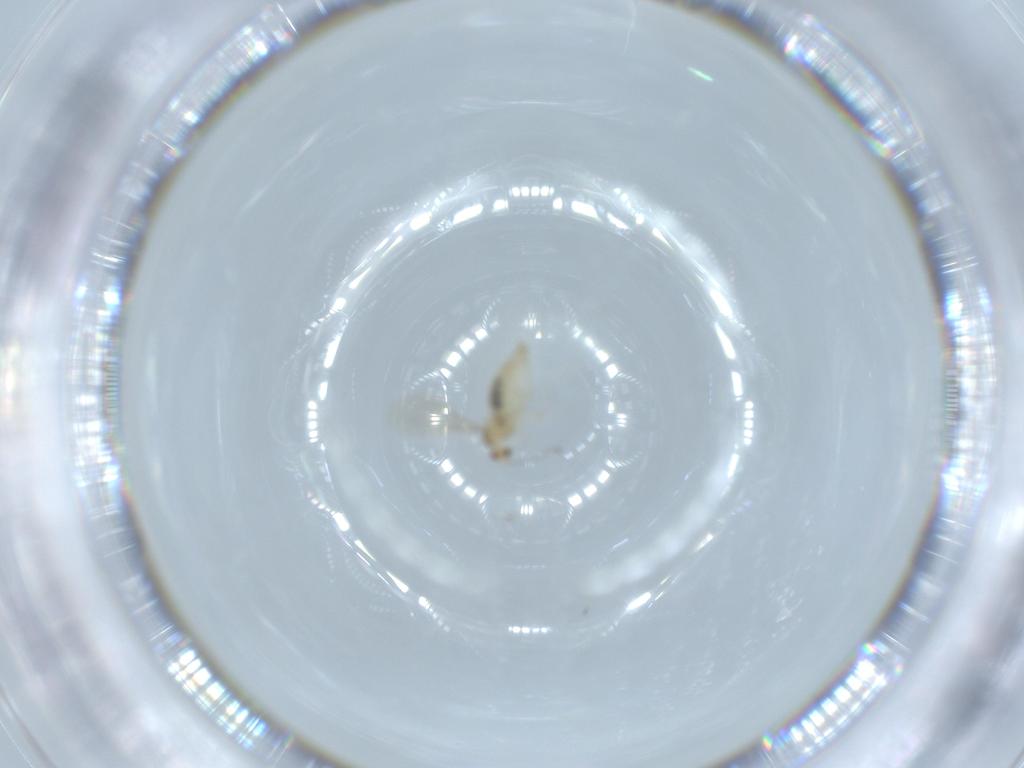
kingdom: Animalia
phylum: Arthropoda
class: Insecta
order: Diptera
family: Cecidomyiidae
